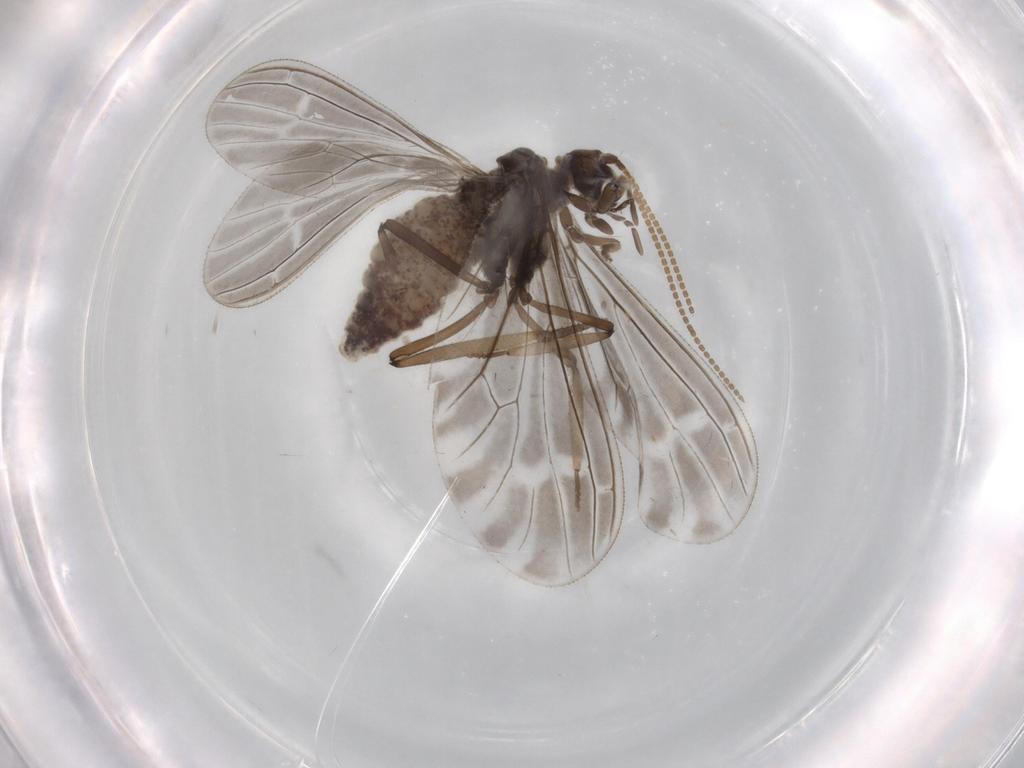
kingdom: Animalia
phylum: Arthropoda
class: Insecta
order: Neuroptera
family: Coniopterygidae
